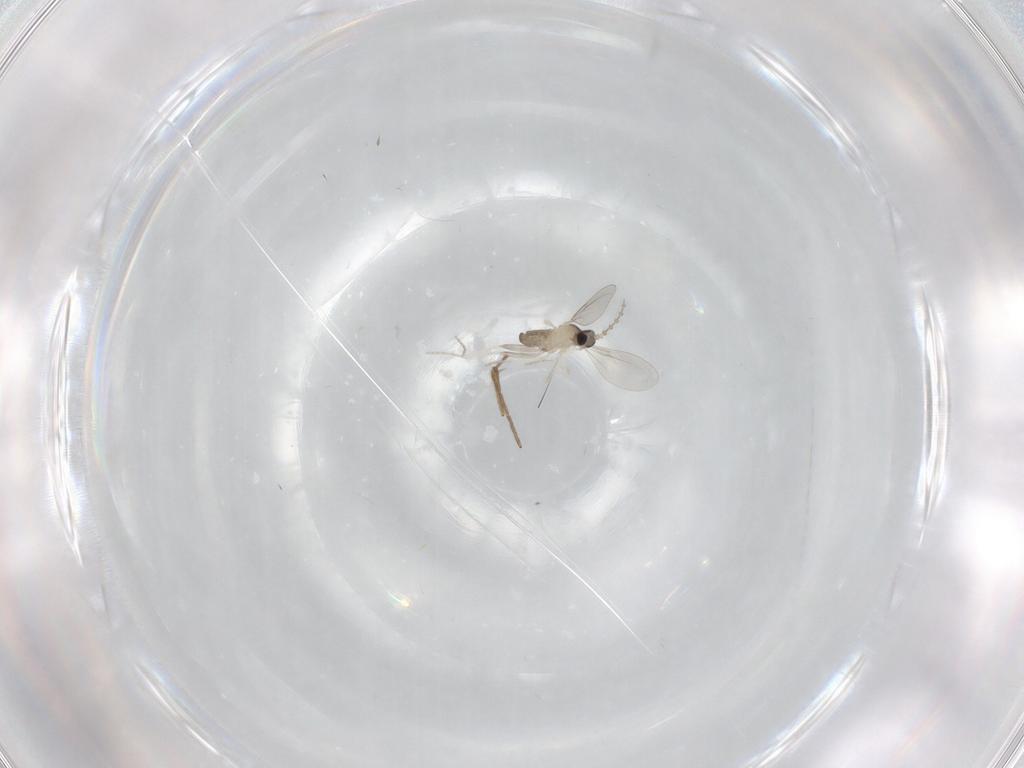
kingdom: Animalia
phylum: Arthropoda
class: Insecta
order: Diptera
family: Cecidomyiidae
